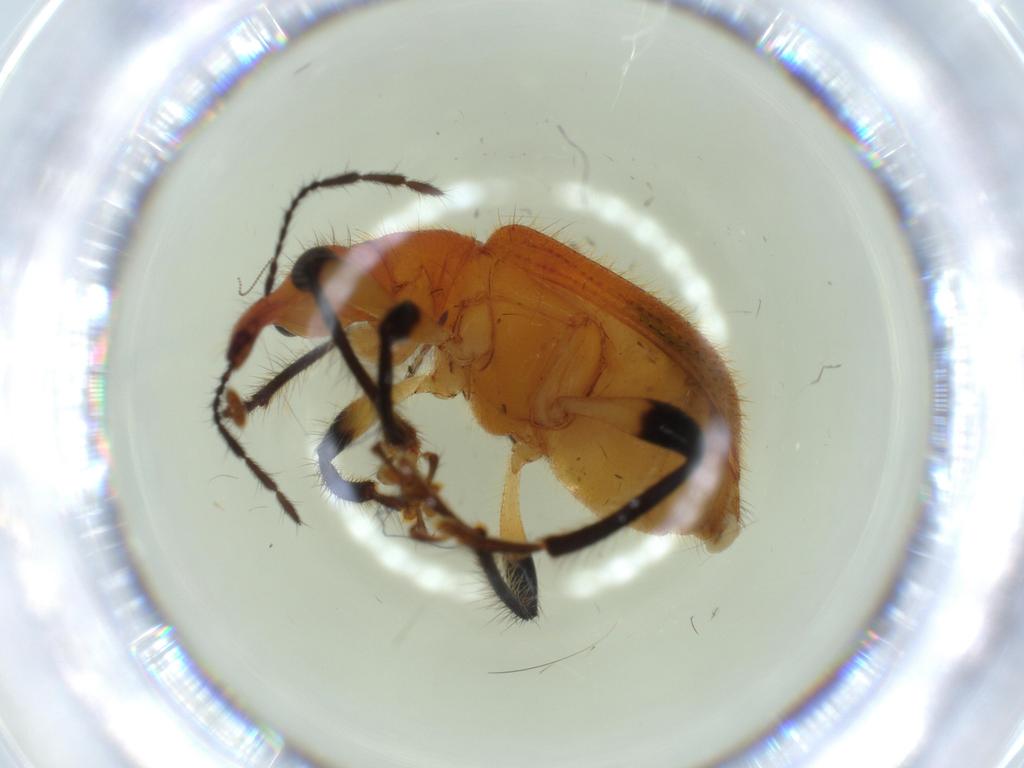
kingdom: Animalia
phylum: Arthropoda
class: Insecta
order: Coleoptera
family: Attelabidae
